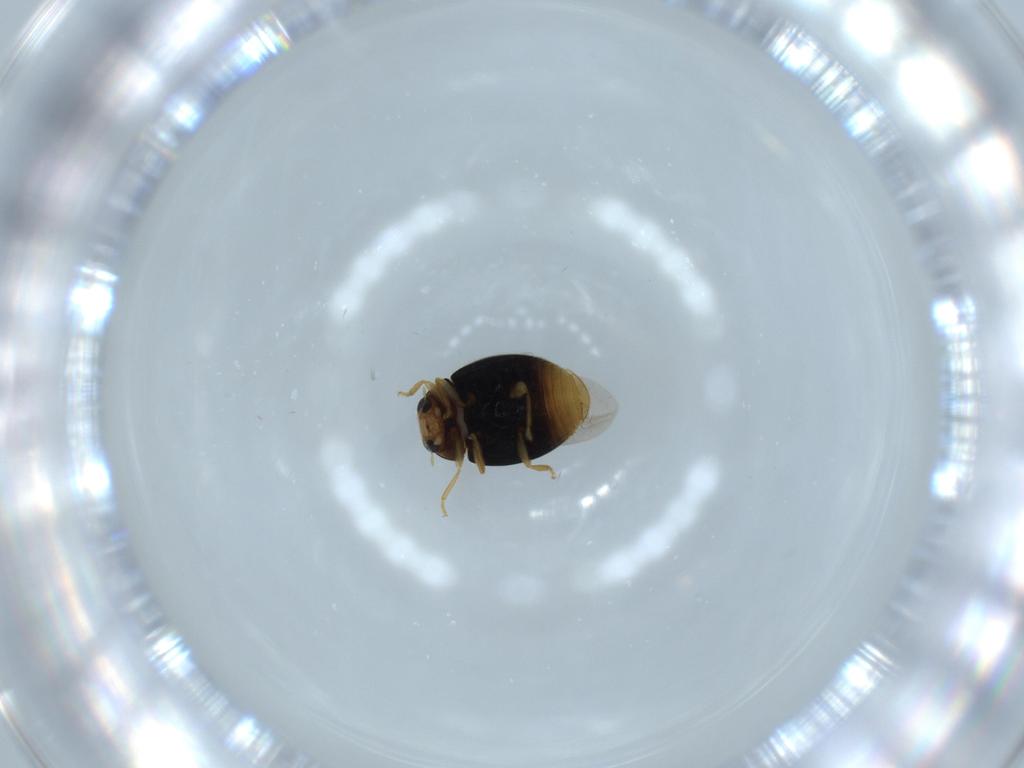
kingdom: Animalia
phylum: Arthropoda
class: Insecta
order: Coleoptera
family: Coccinellidae
